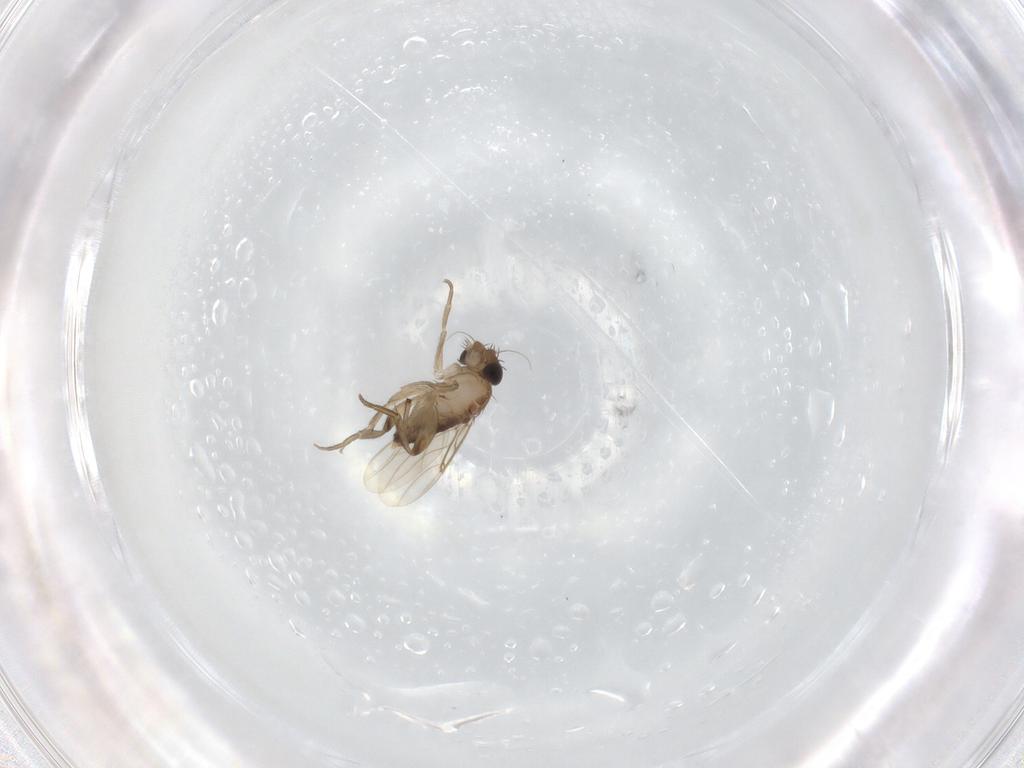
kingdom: Animalia
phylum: Arthropoda
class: Insecta
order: Diptera
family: Phoridae
